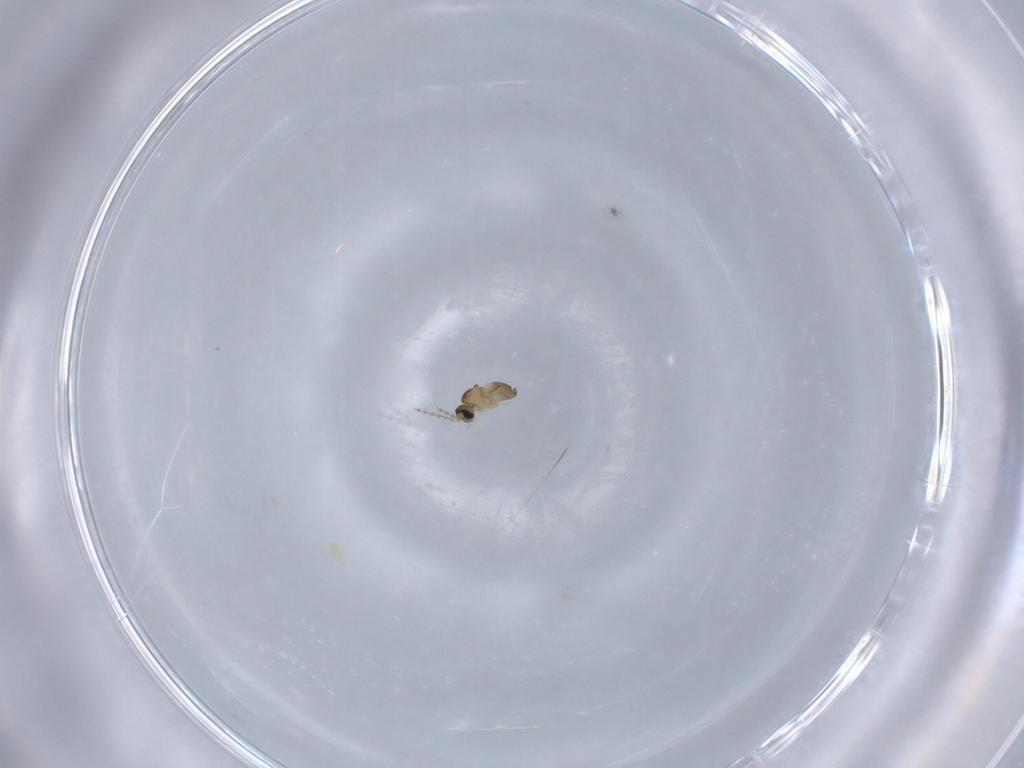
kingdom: Animalia
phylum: Arthropoda
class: Insecta
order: Diptera
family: Cecidomyiidae
